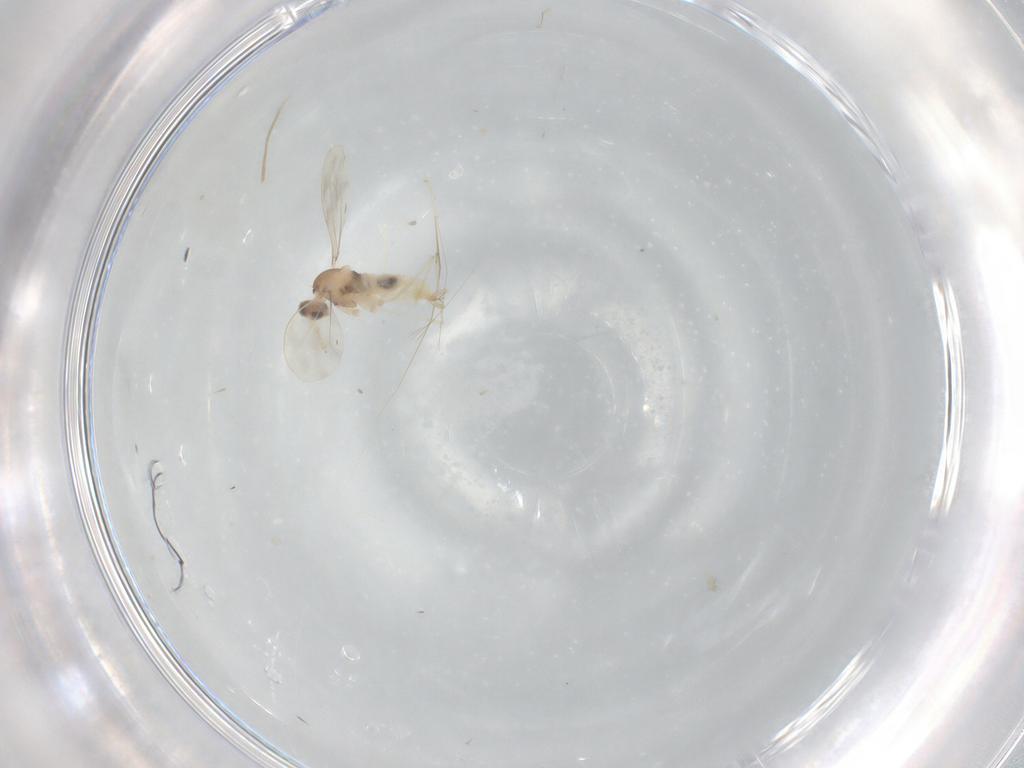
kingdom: Animalia
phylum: Arthropoda
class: Insecta
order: Diptera
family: Cecidomyiidae
